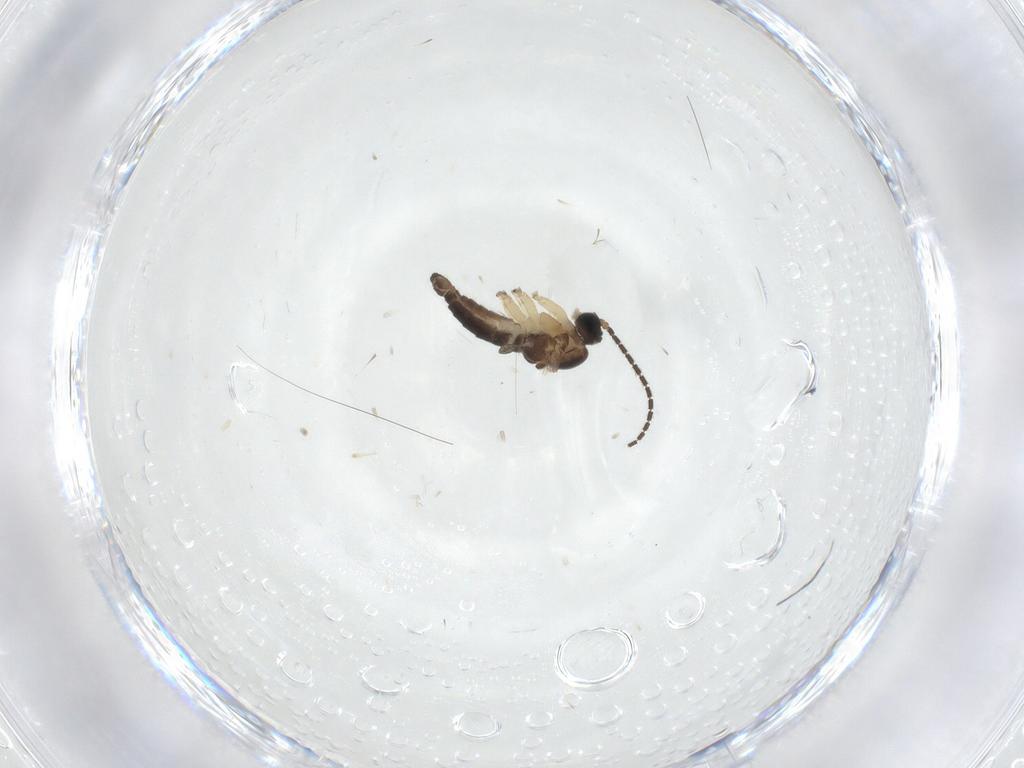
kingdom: Animalia
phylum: Arthropoda
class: Insecta
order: Diptera
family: Sciaridae
